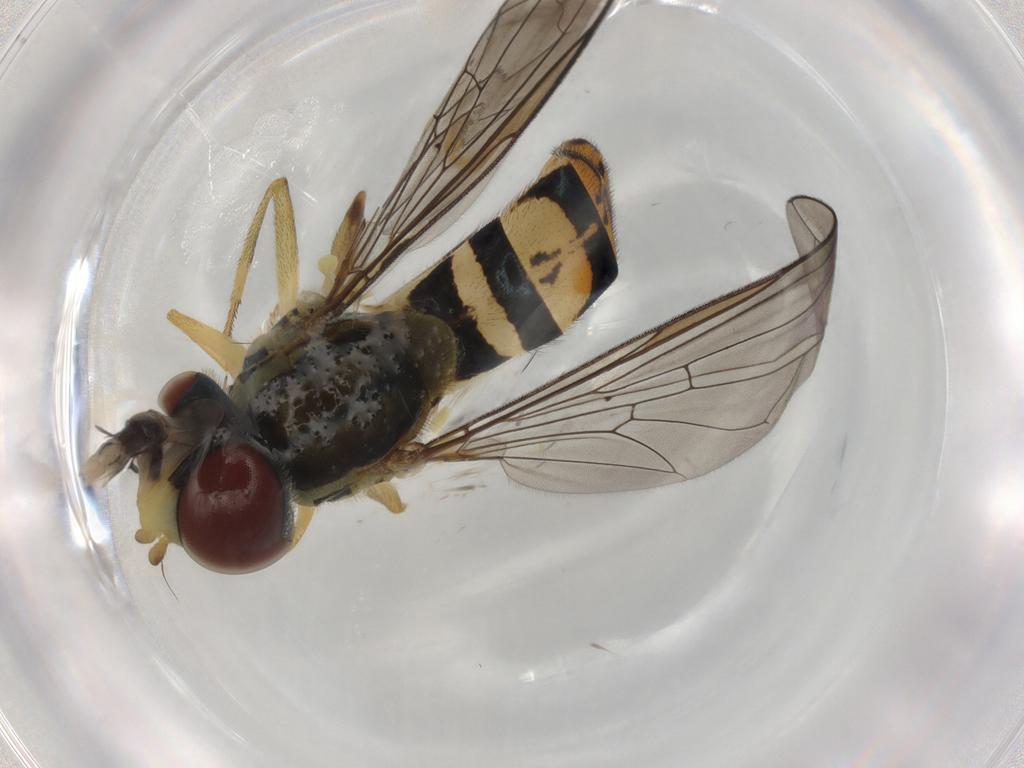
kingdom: Animalia
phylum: Arthropoda
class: Insecta
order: Diptera
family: Syrphidae
